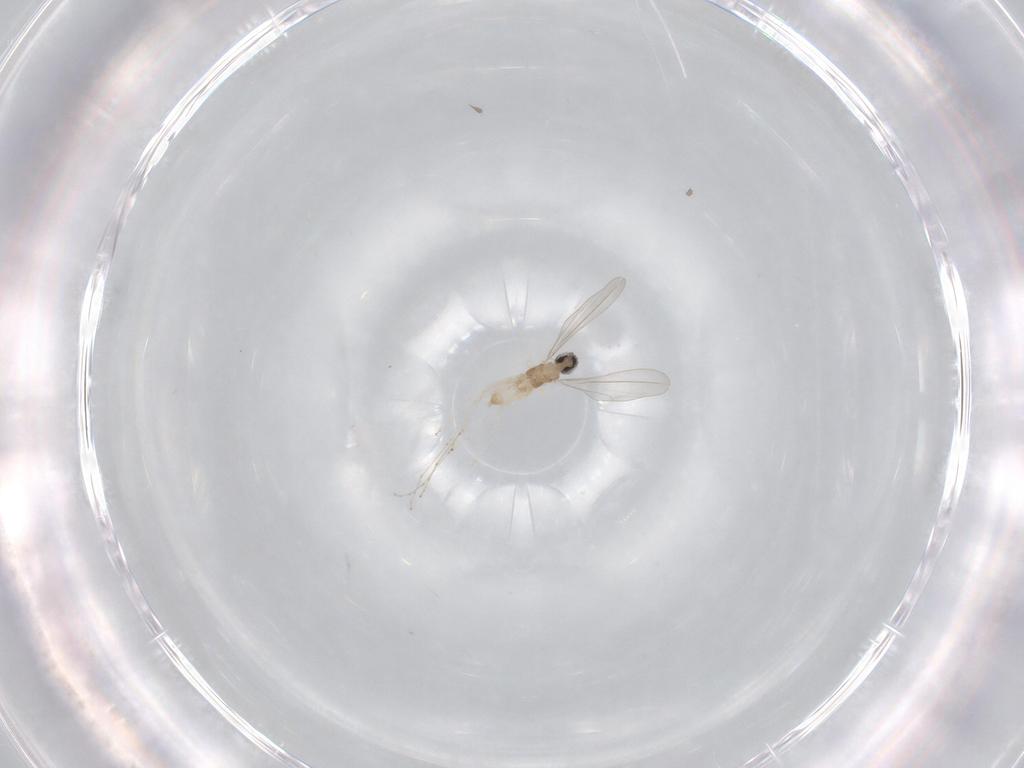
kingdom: Animalia
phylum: Arthropoda
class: Insecta
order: Diptera
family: Cecidomyiidae
